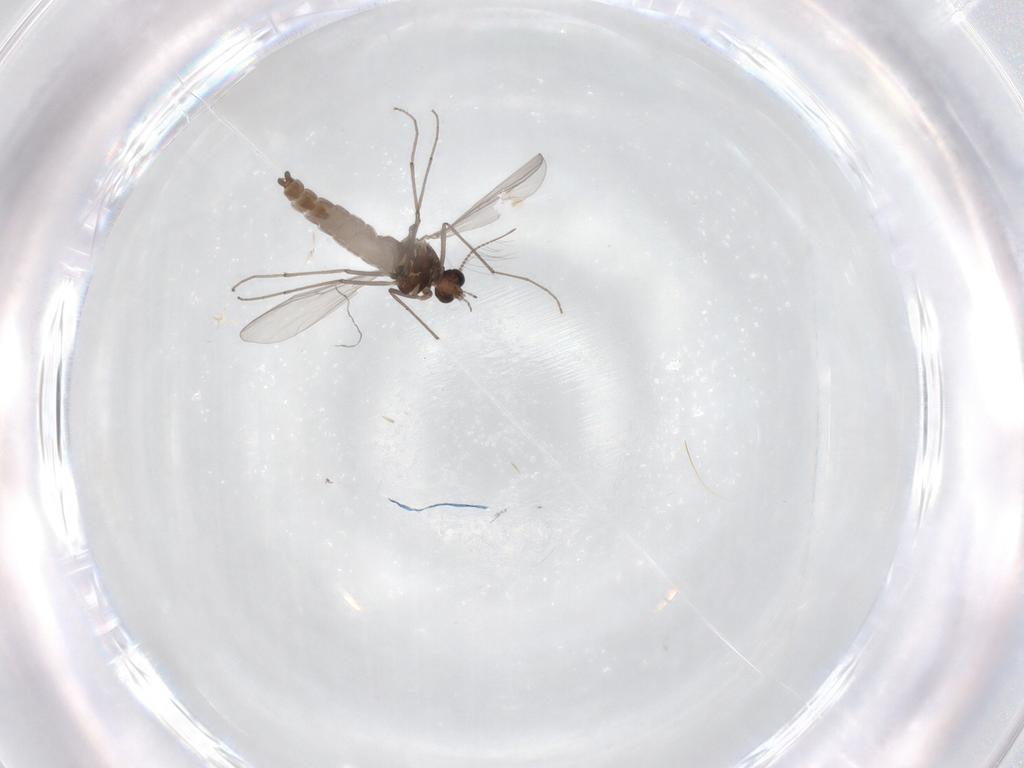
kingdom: Animalia
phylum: Arthropoda
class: Insecta
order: Diptera
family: Chironomidae
